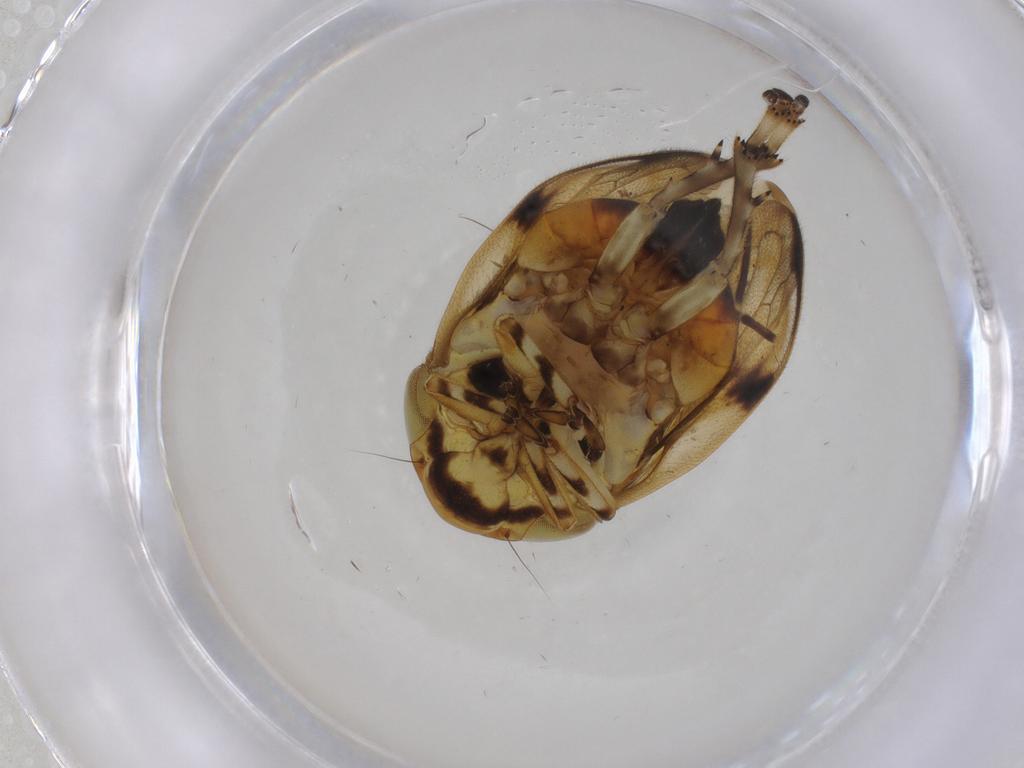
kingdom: Animalia
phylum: Arthropoda
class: Insecta
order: Hemiptera
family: Clastopteridae
